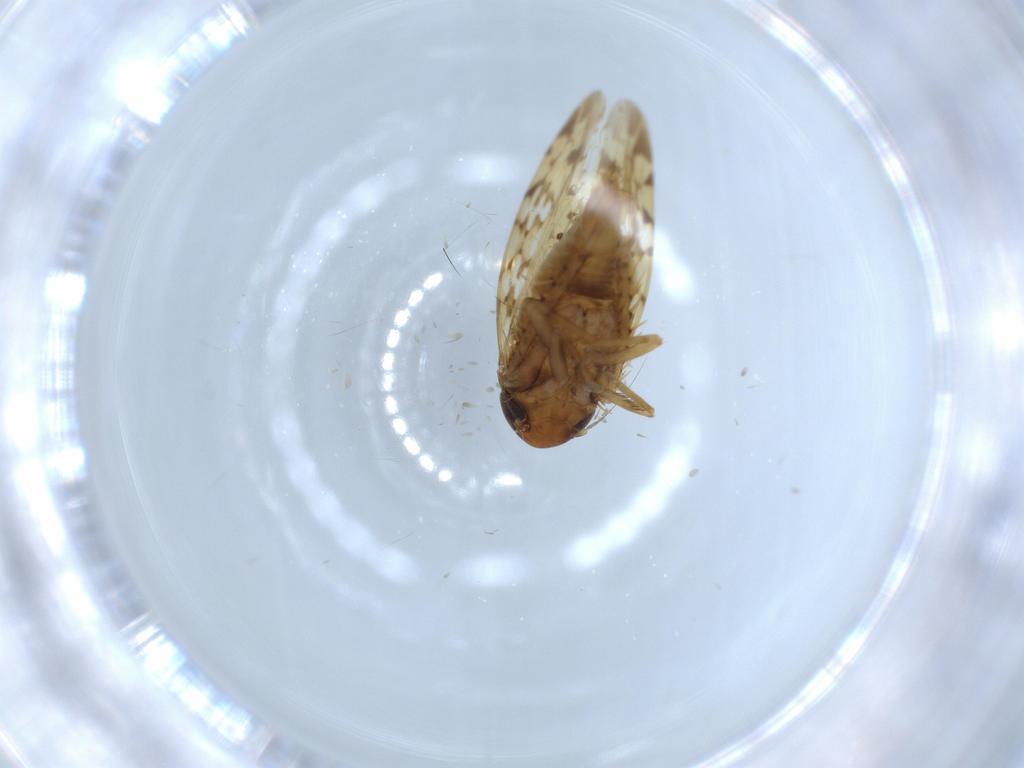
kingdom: Animalia
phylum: Arthropoda
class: Insecta
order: Hemiptera
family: Cicadellidae
